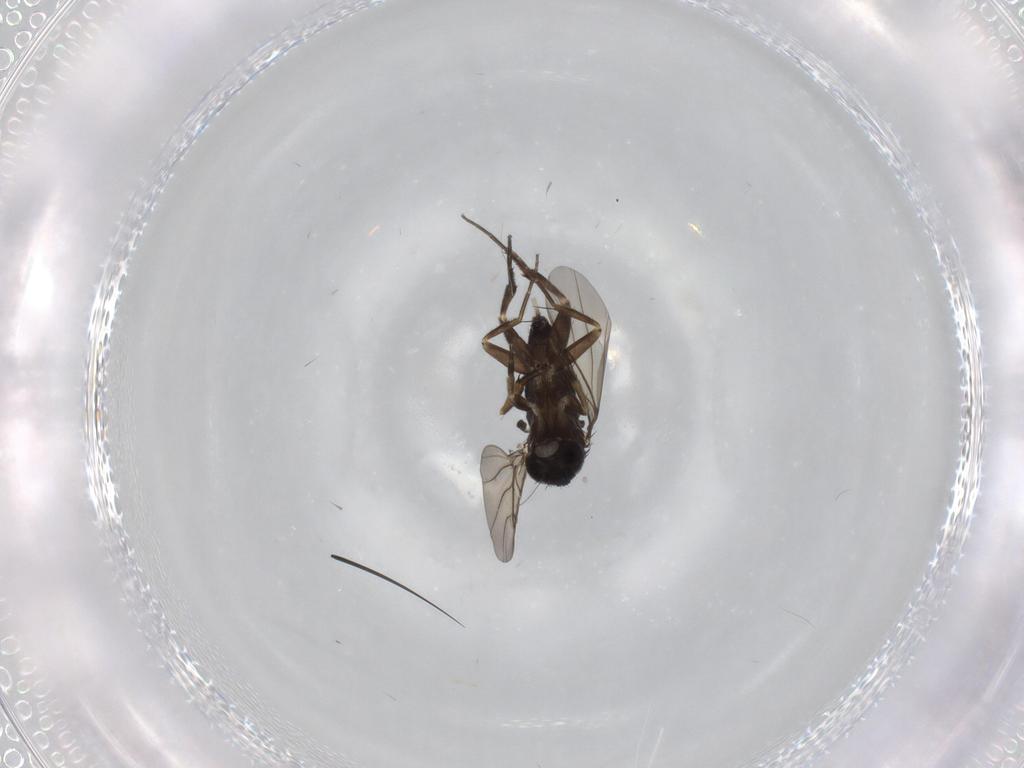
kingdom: Animalia
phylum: Arthropoda
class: Insecta
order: Diptera
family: Phoridae
